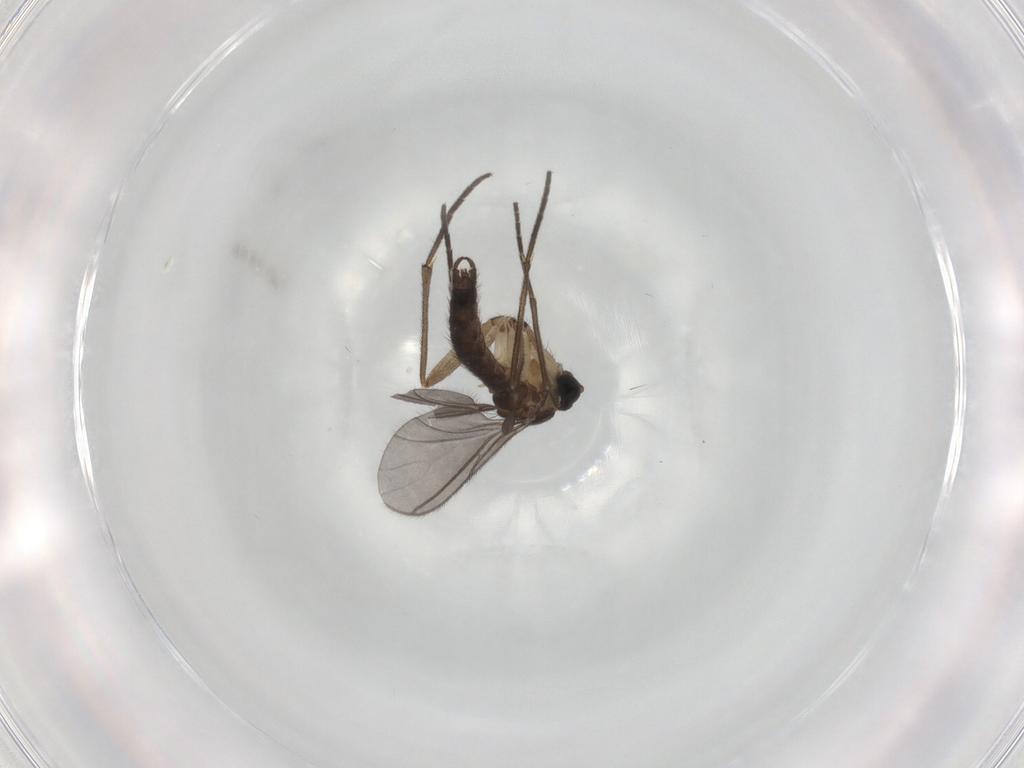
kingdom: Animalia
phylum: Arthropoda
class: Insecta
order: Diptera
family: Sciaridae
